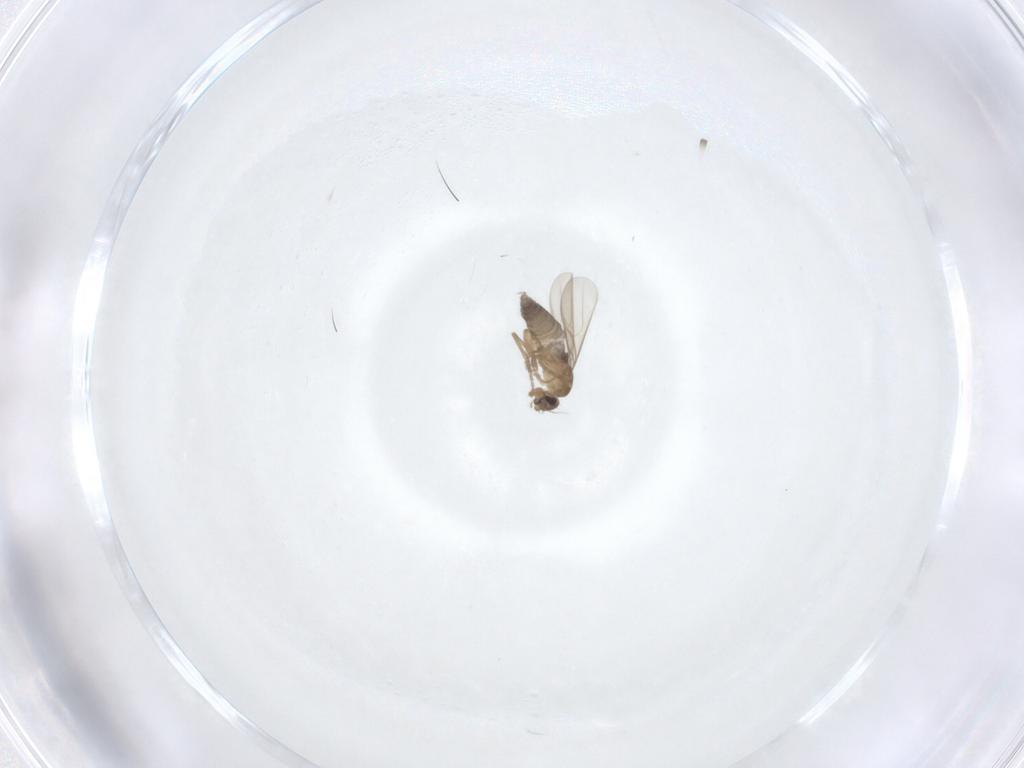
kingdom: Animalia
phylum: Arthropoda
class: Insecta
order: Diptera
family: Phoridae
